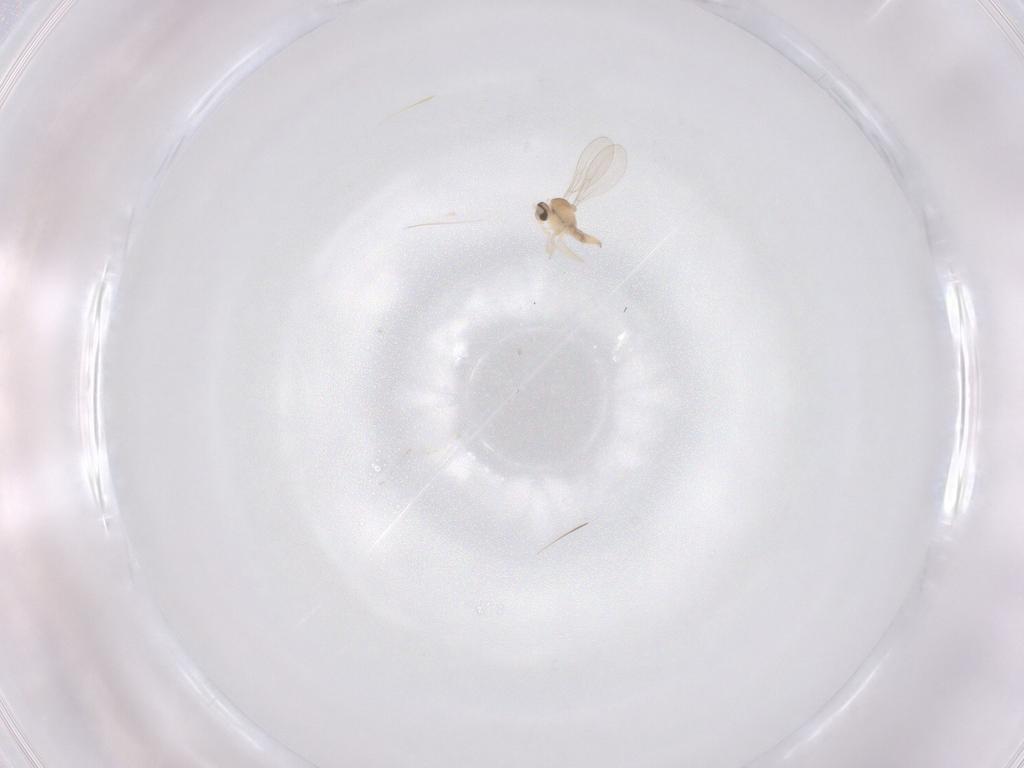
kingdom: Animalia
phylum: Arthropoda
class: Insecta
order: Diptera
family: Cecidomyiidae
